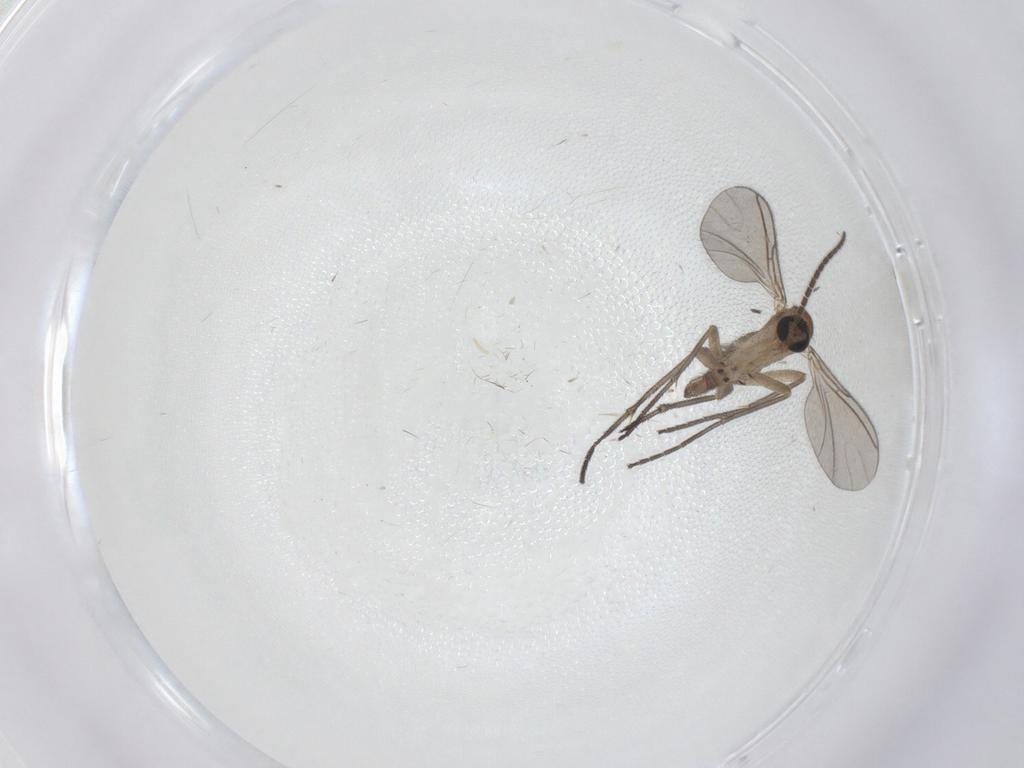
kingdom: Animalia
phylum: Arthropoda
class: Insecta
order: Diptera
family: Sciaridae
